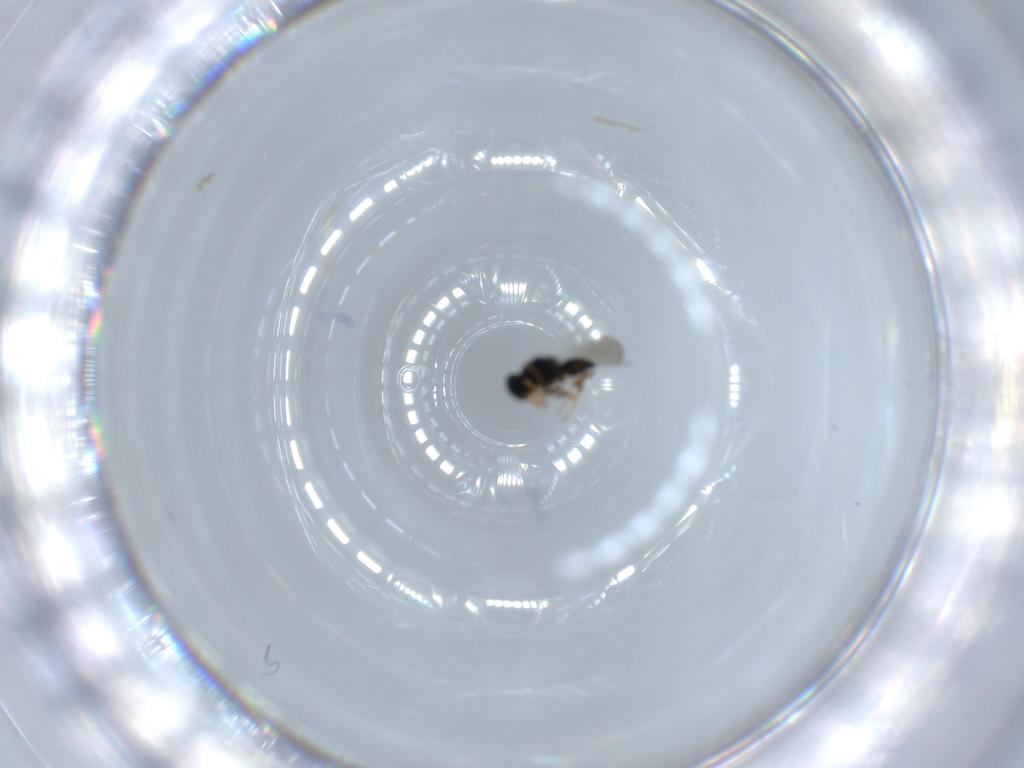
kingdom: Animalia
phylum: Arthropoda
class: Insecta
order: Hymenoptera
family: Platygastridae
